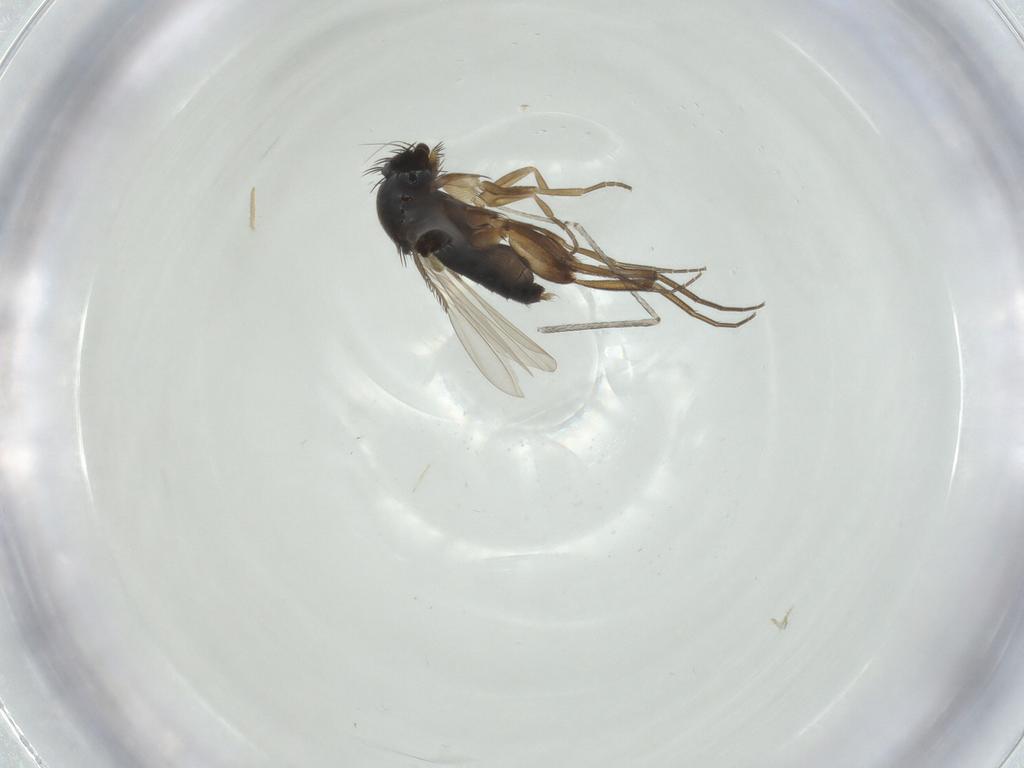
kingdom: Animalia
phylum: Arthropoda
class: Insecta
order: Diptera
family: Cecidomyiidae
